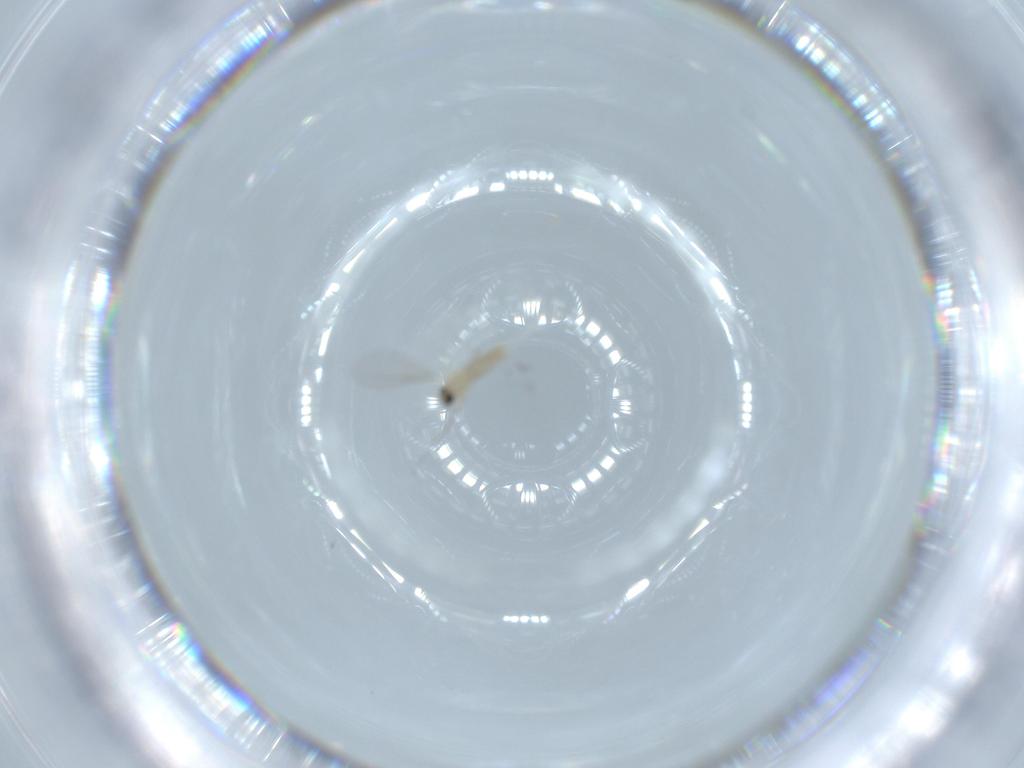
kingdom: Animalia
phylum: Arthropoda
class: Insecta
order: Diptera
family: Cecidomyiidae
